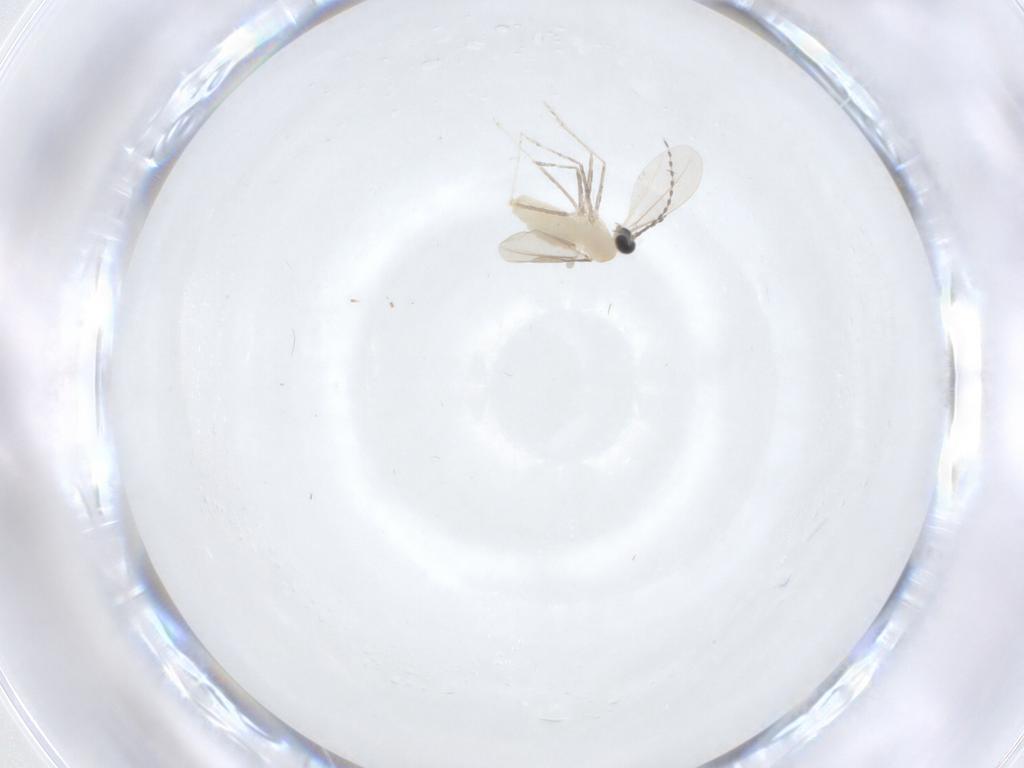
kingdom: Animalia
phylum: Arthropoda
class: Insecta
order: Diptera
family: Cecidomyiidae
